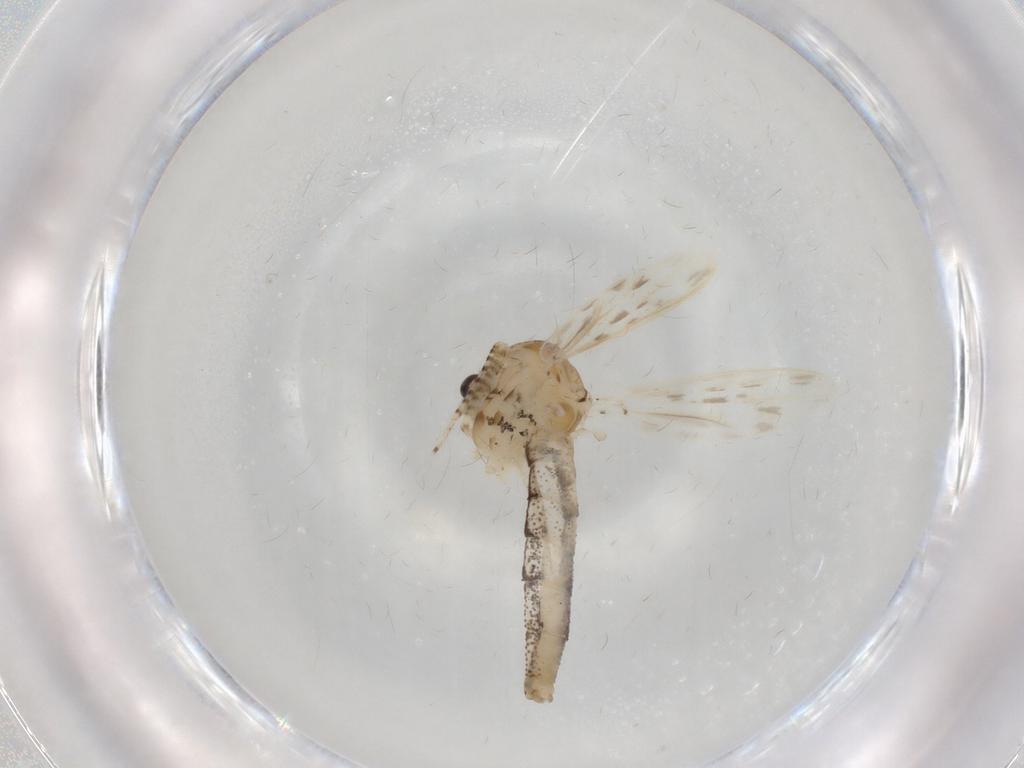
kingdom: Animalia
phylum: Arthropoda
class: Insecta
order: Diptera
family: Chaoboridae
